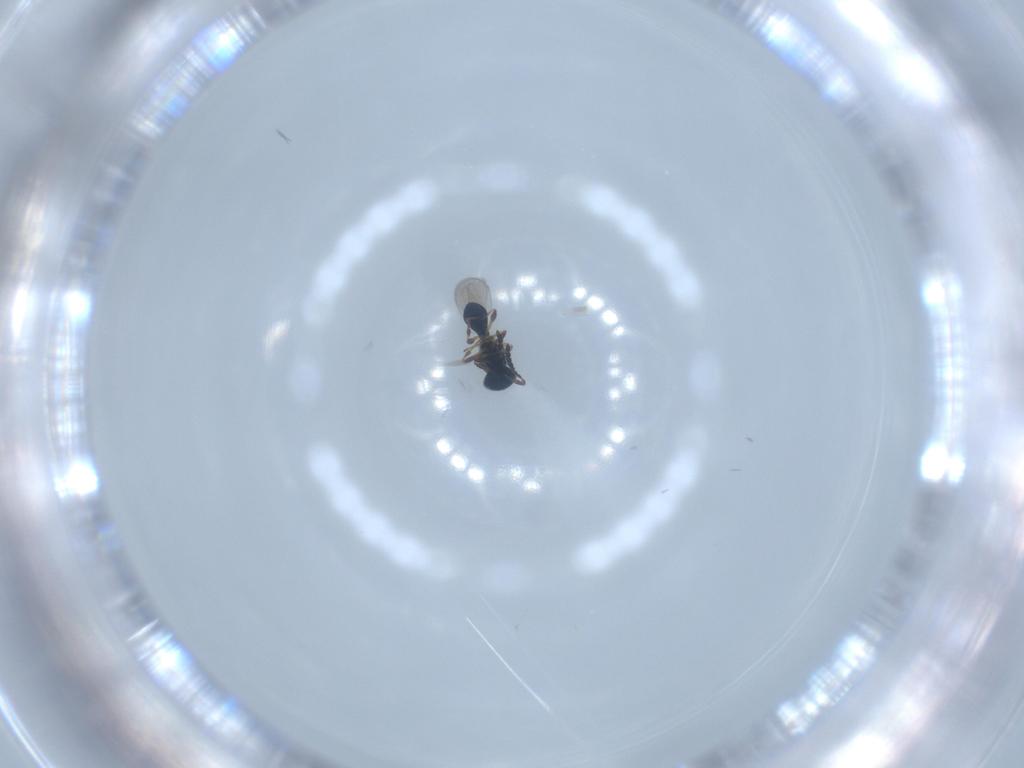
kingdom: Animalia
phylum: Arthropoda
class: Insecta
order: Hymenoptera
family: Platygastridae
